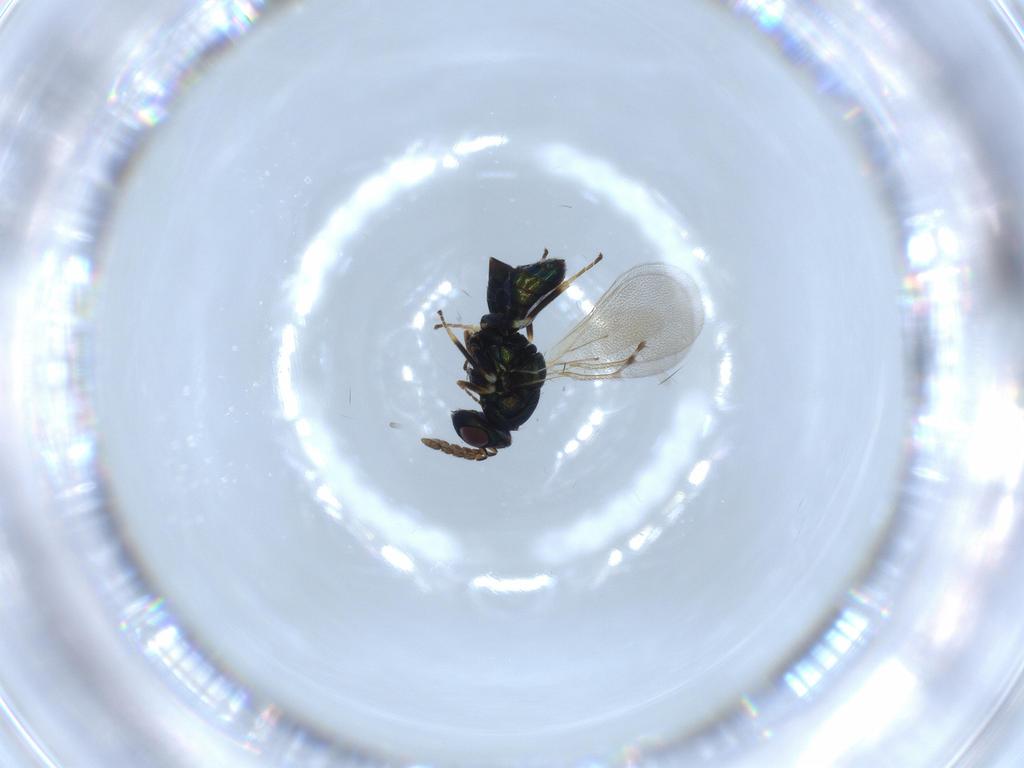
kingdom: Animalia
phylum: Arthropoda
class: Insecta
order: Hymenoptera
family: Eulophidae
